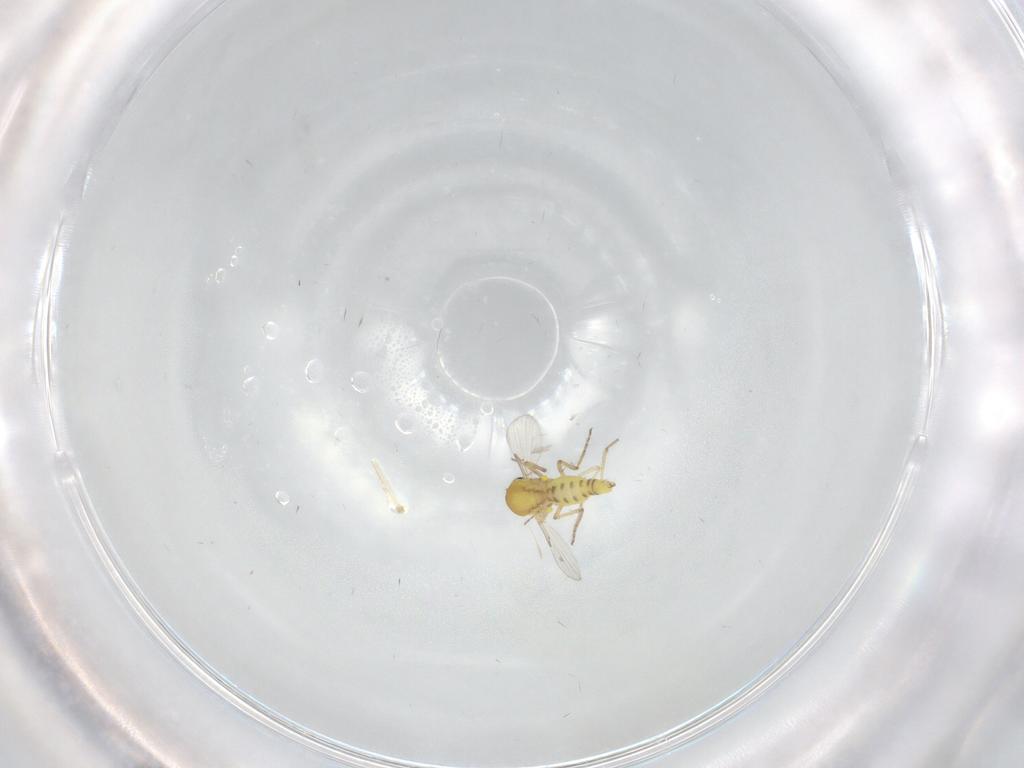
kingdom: Animalia
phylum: Arthropoda
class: Insecta
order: Diptera
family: Ceratopogonidae
